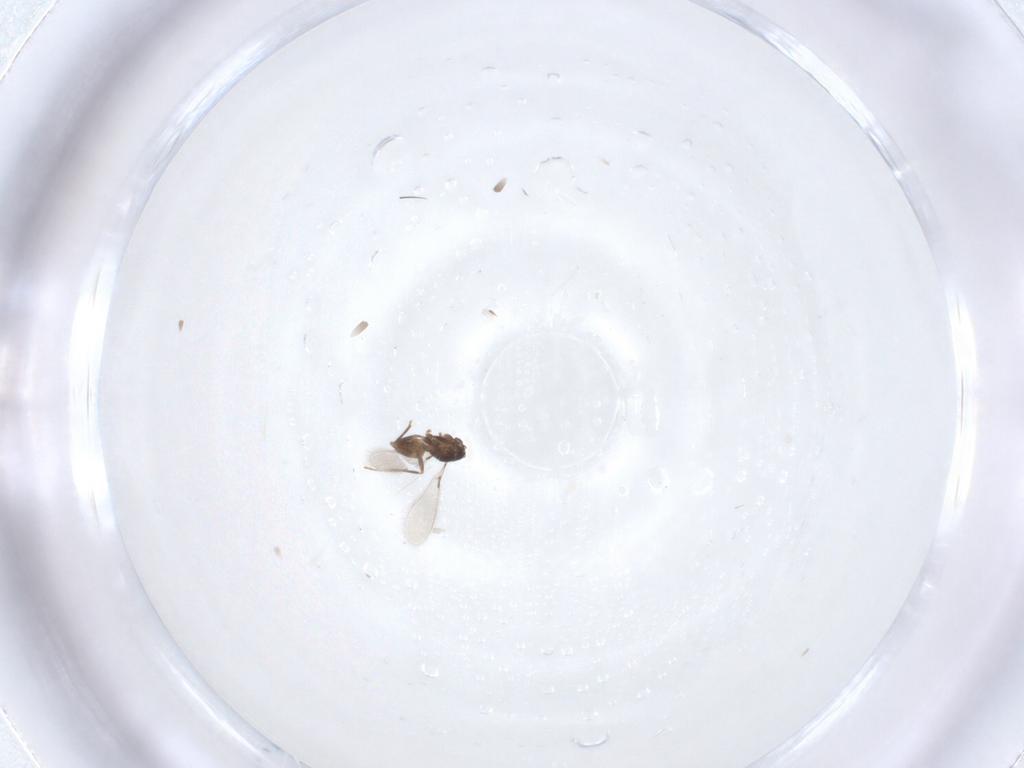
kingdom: Animalia
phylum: Arthropoda
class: Insecta
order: Hymenoptera
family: Mymaridae
